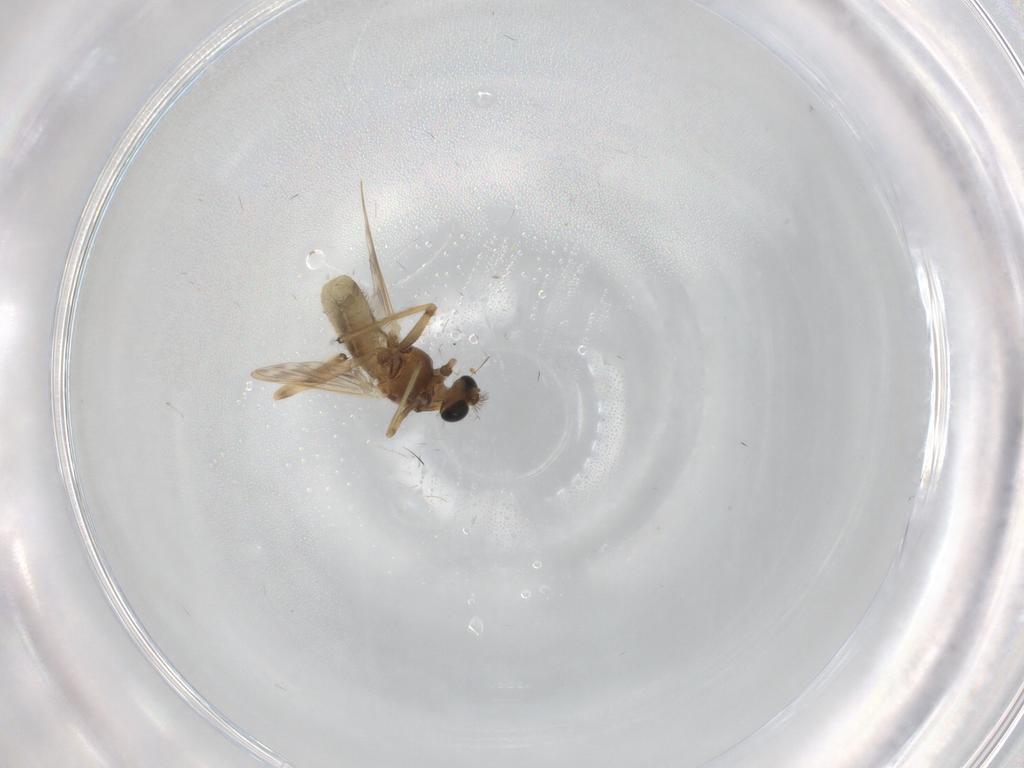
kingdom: Animalia
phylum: Arthropoda
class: Insecta
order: Diptera
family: Chironomidae
